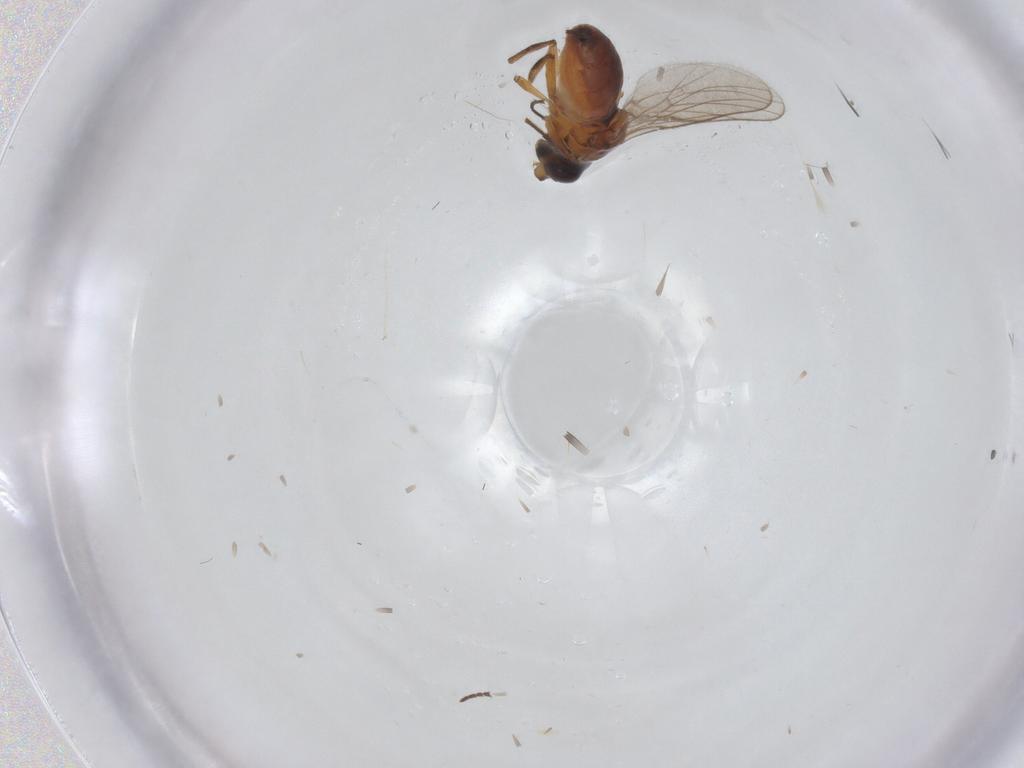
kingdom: Animalia
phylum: Arthropoda
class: Insecta
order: Diptera
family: Chloropidae
